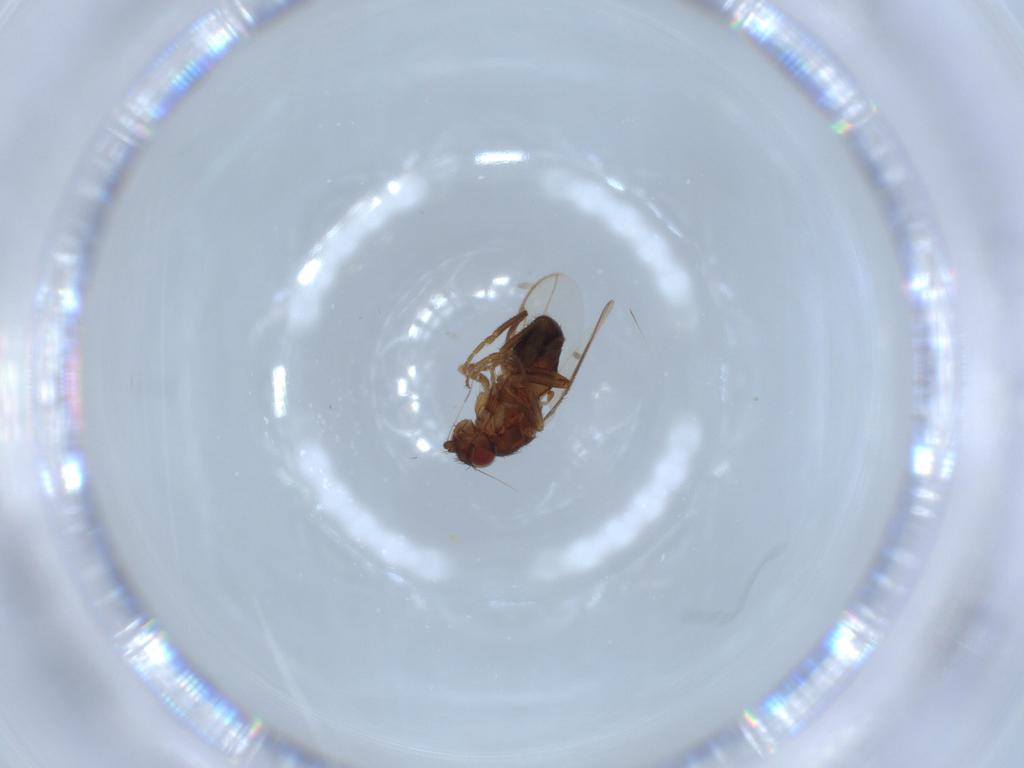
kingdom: Animalia
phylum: Arthropoda
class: Insecta
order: Diptera
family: Sphaeroceridae
